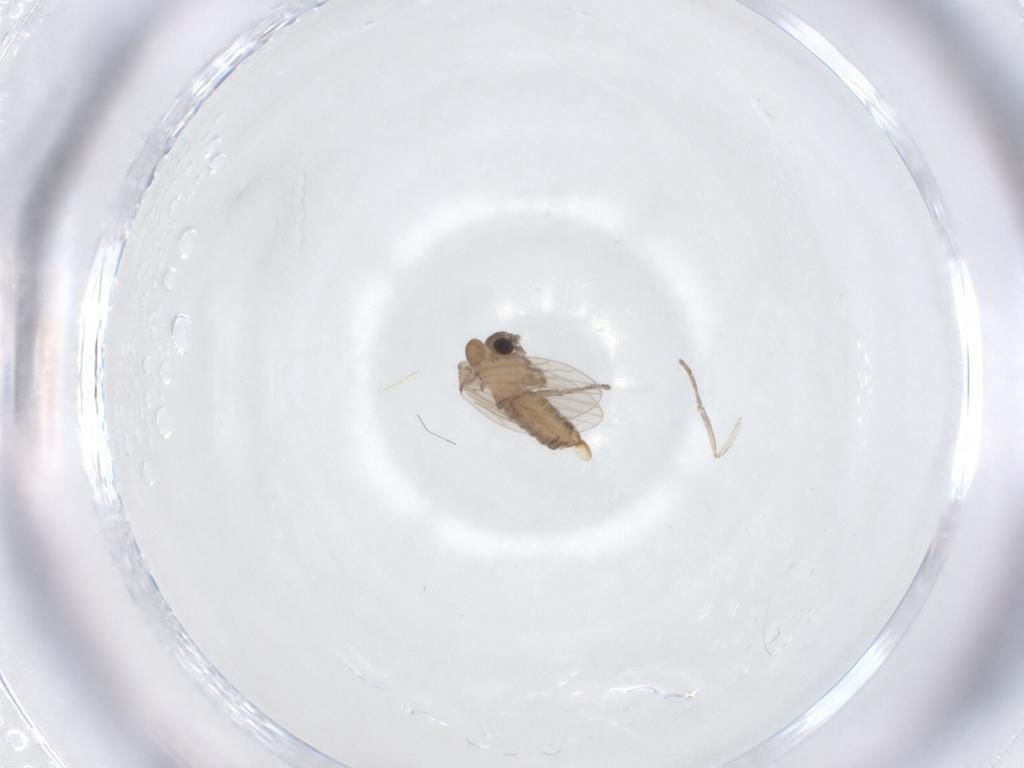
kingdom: Animalia
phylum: Arthropoda
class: Insecta
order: Diptera
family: Psychodidae
